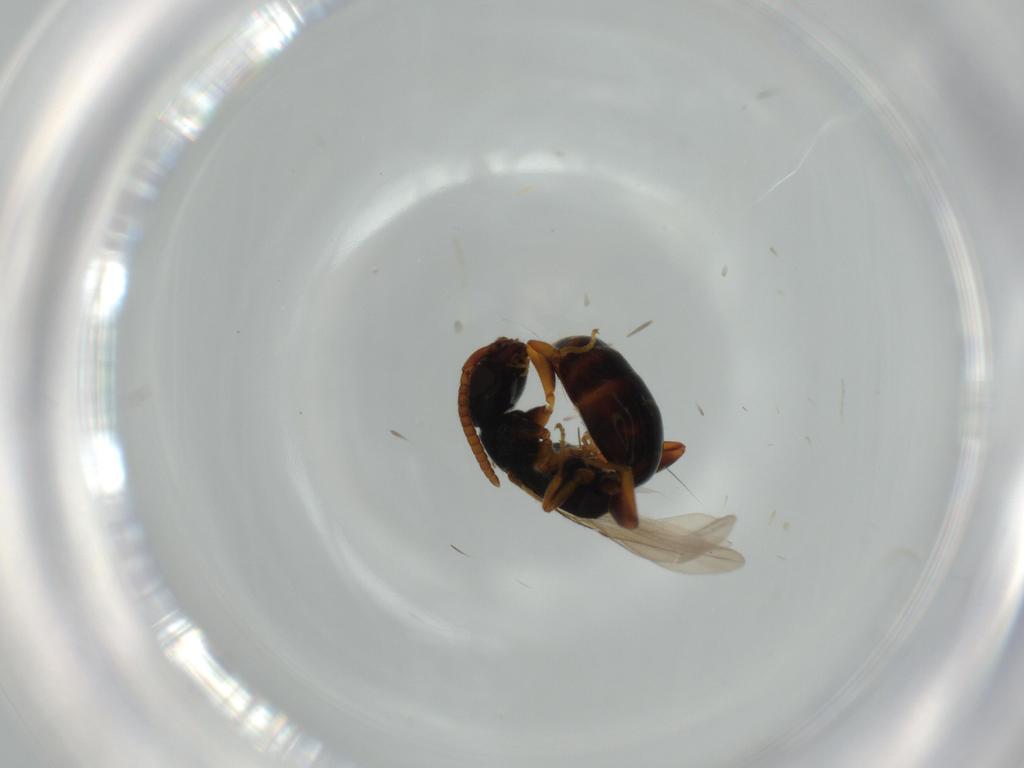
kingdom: Animalia
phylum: Arthropoda
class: Insecta
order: Hymenoptera
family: Bethylidae
